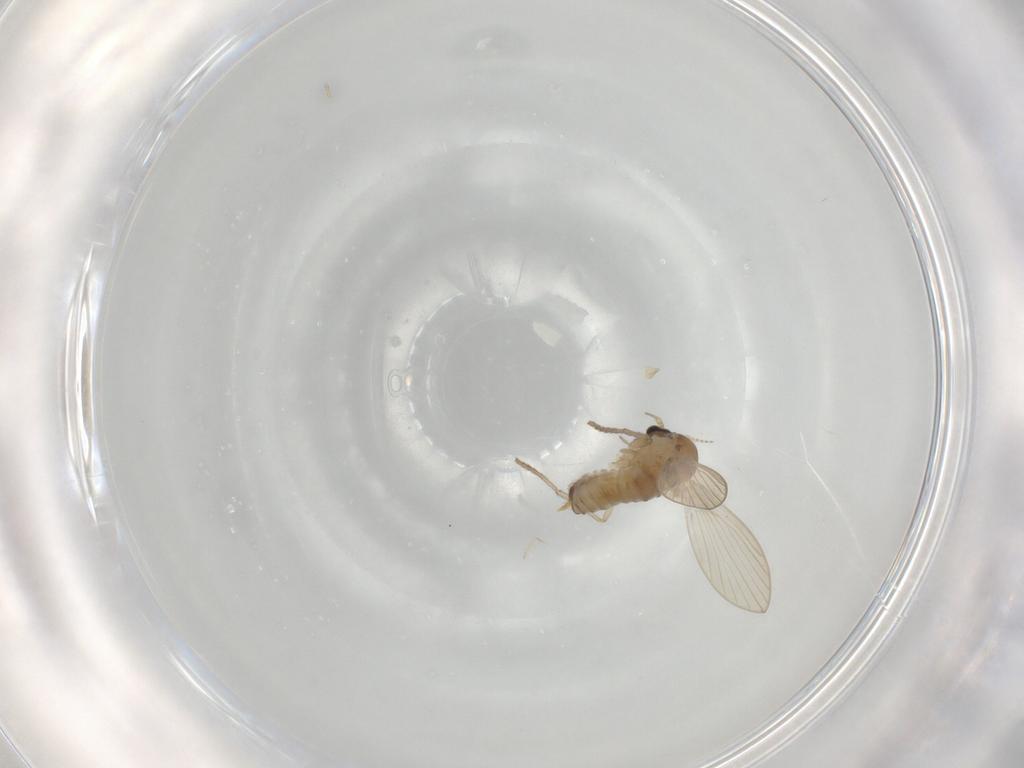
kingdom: Animalia
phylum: Arthropoda
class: Insecta
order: Diptera
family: Psychodidae
